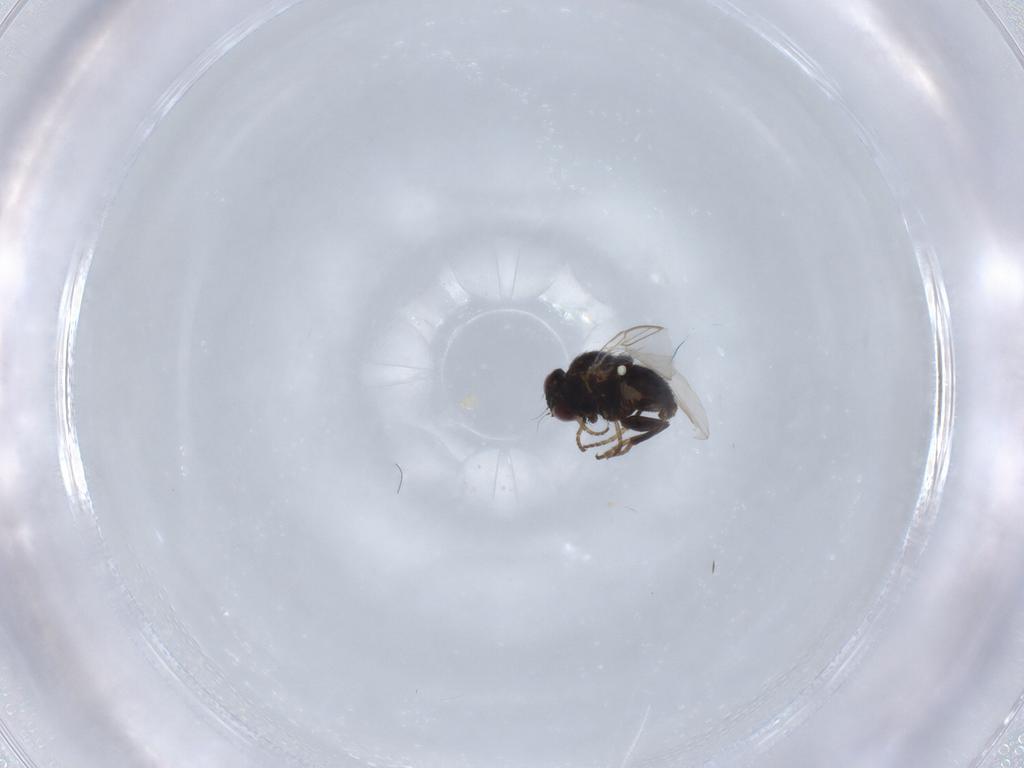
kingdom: Animalia
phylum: Arthropoda
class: Insecta
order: Diptera
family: Agromyzidae
